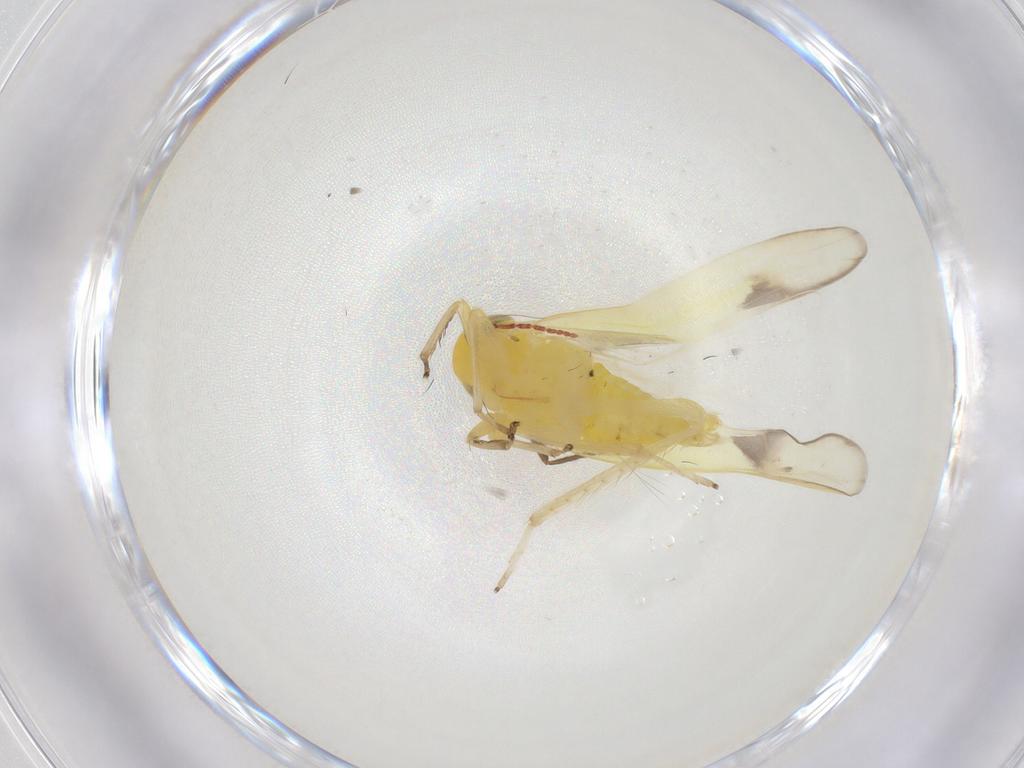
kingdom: Animalia
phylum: Arthropoda
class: Insecta
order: Hemiptera
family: Cicadellidae
